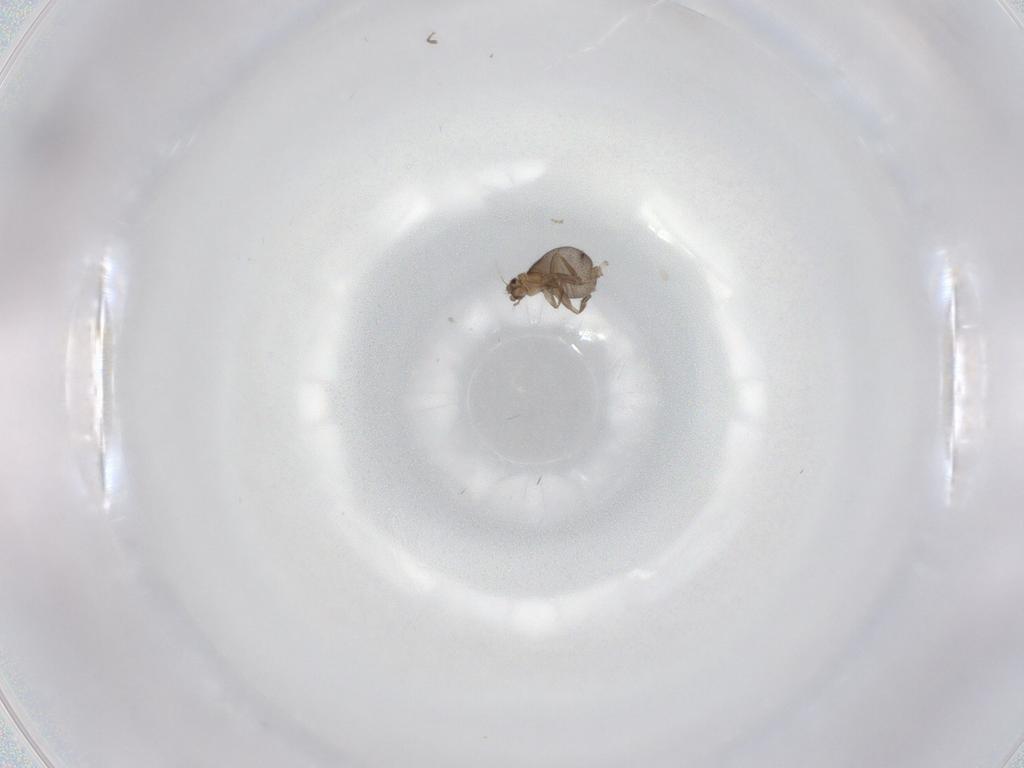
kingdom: Animalia
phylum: Arthropoda
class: Insecta
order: Diptera
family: Phoridae
